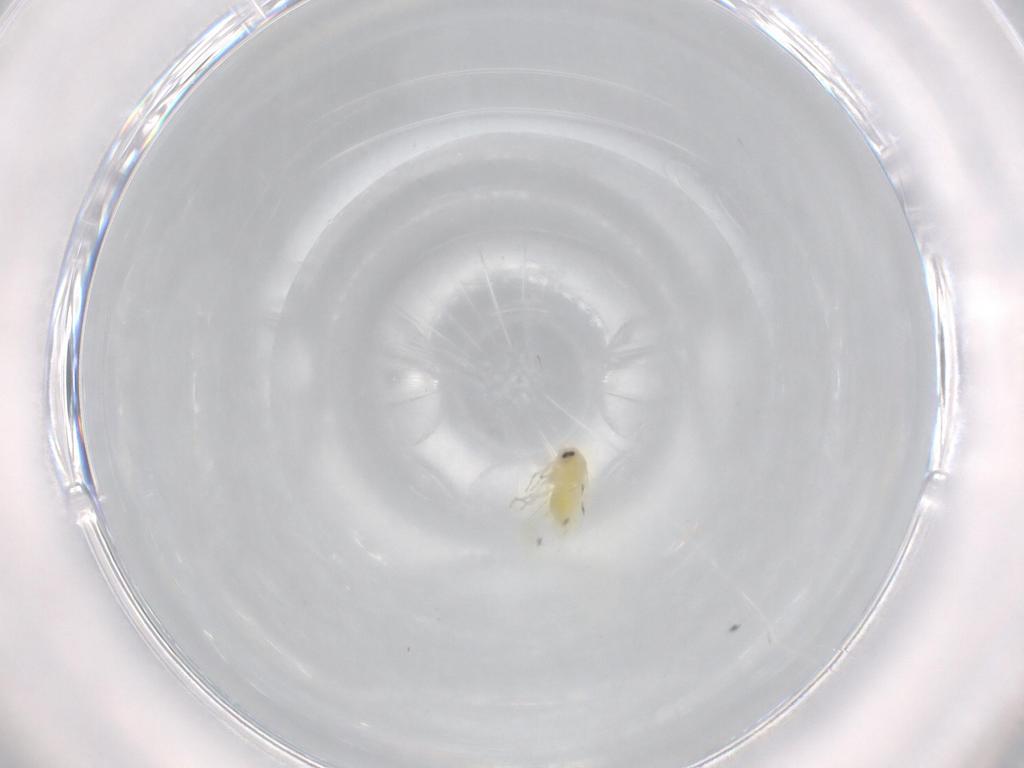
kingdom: Animalia
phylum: Arthropoda
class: Insecta
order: Hemiptera
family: Aleyrodidae
